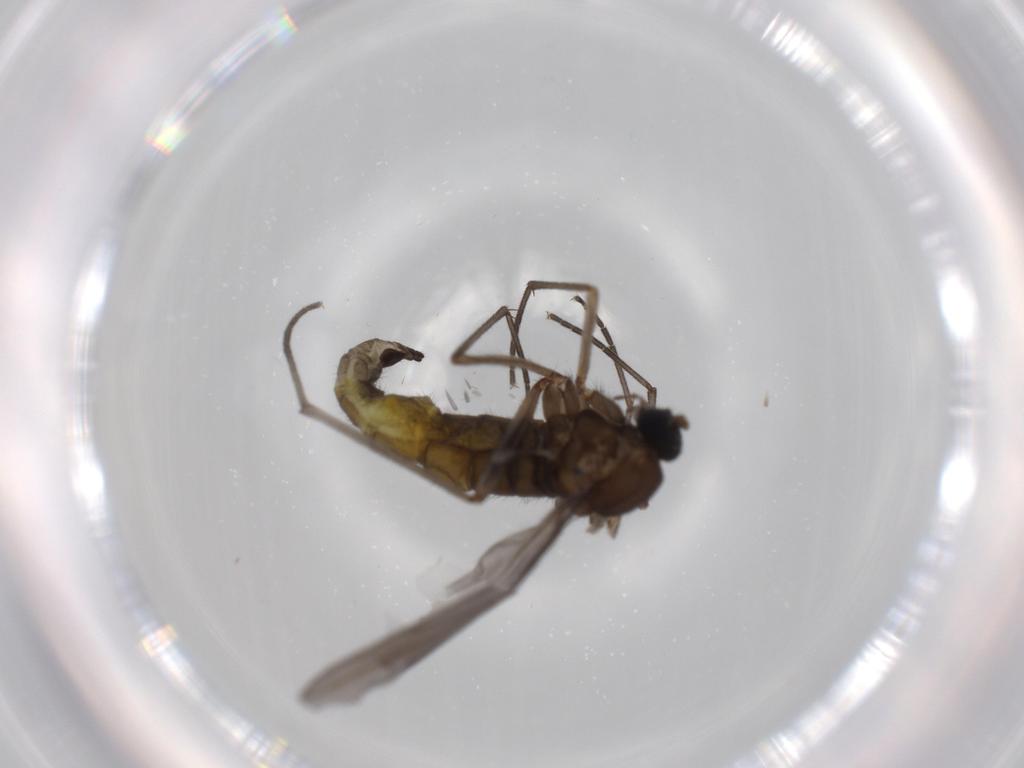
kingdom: Animalia
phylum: Arthropoda
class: Insecta
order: Diptera
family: Sciaridae
